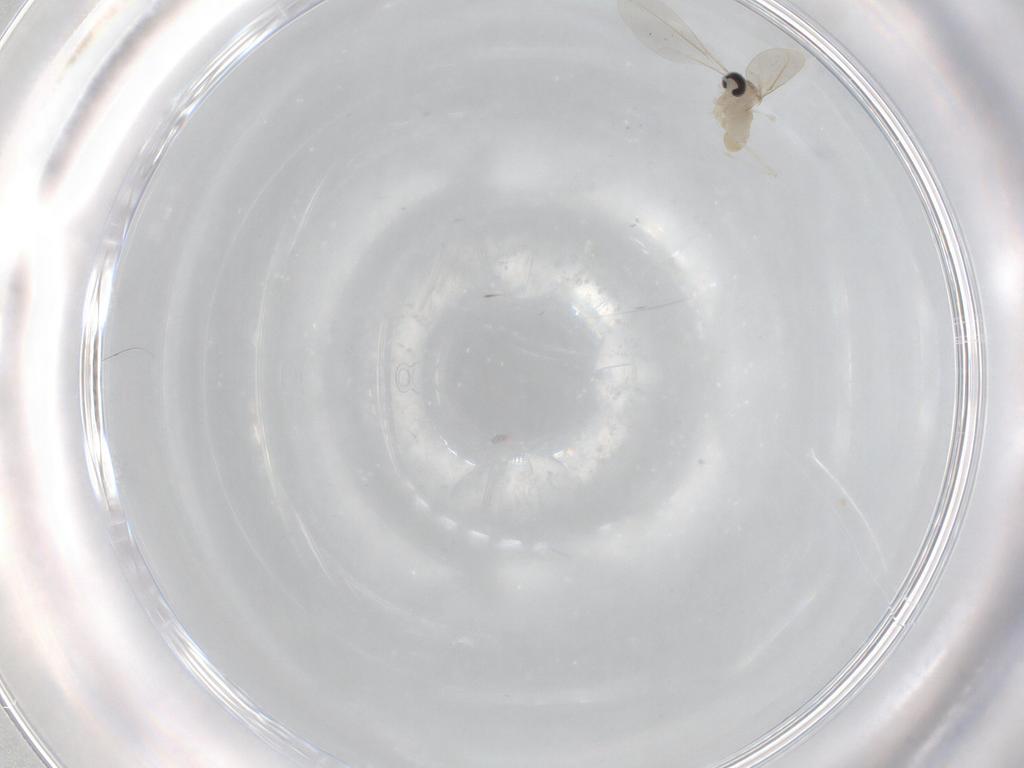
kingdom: Animalia
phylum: Arthropoda
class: Insecta
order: Diptera
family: Cecidomyiidae
